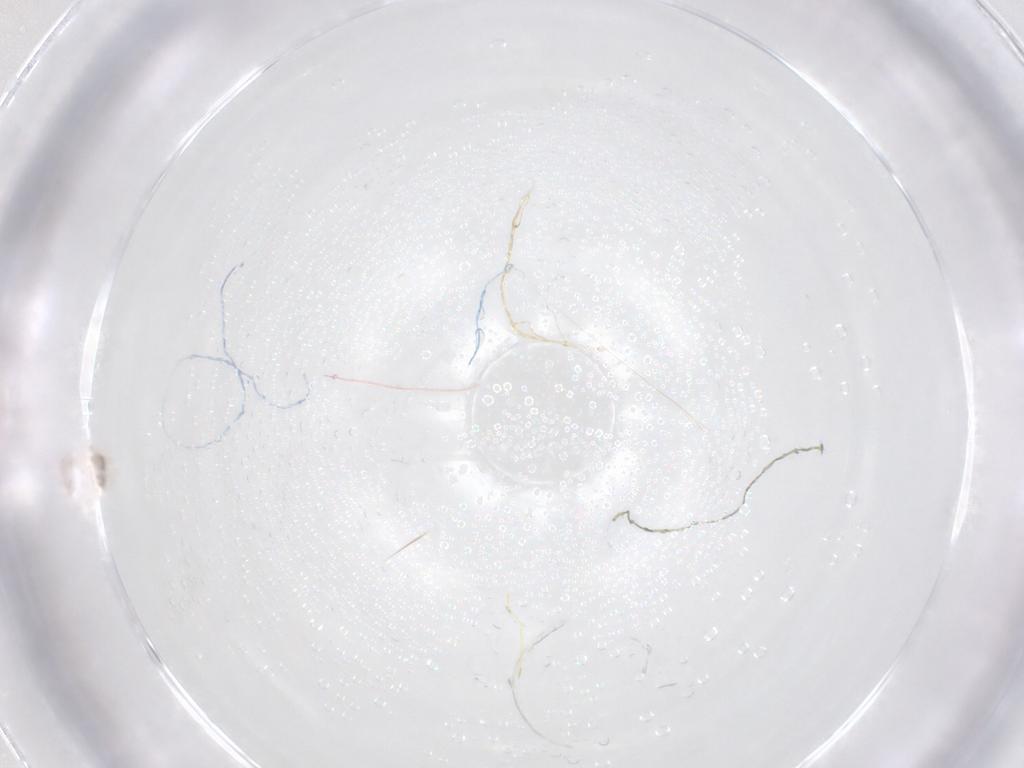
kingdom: Animalia
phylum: Arthropoda
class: Arachnida
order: Mesostigmata
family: Ascidae
